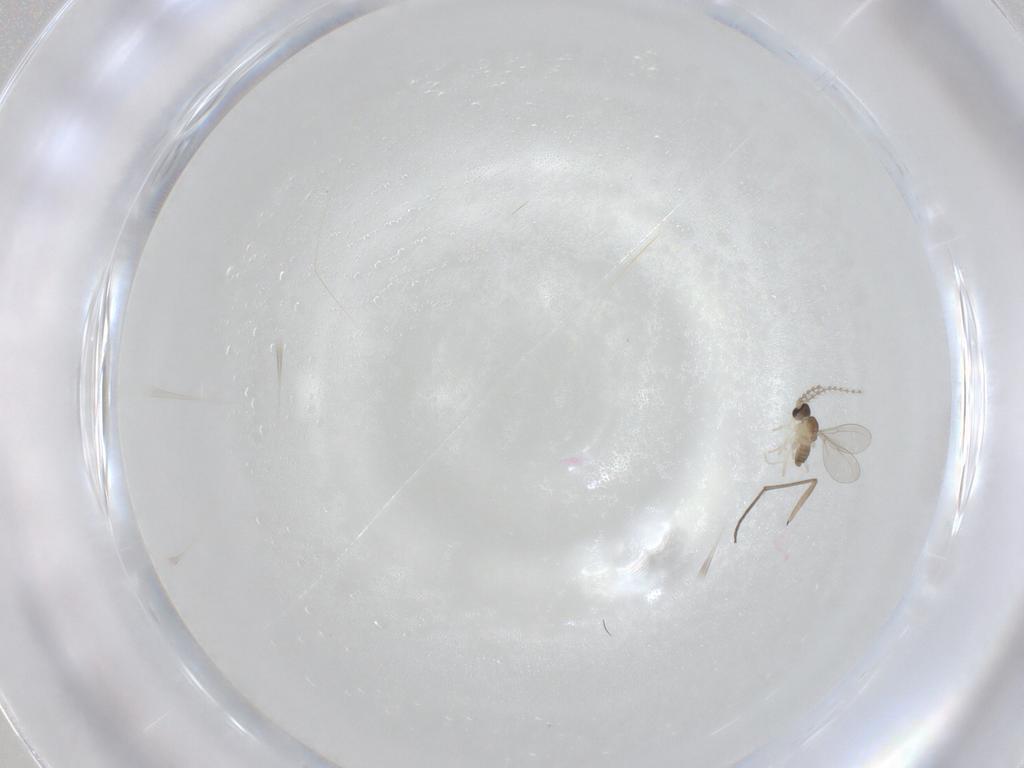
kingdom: Animalia
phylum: Arthropoda
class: Insecta
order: Diptera
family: Cecidomyiidae
